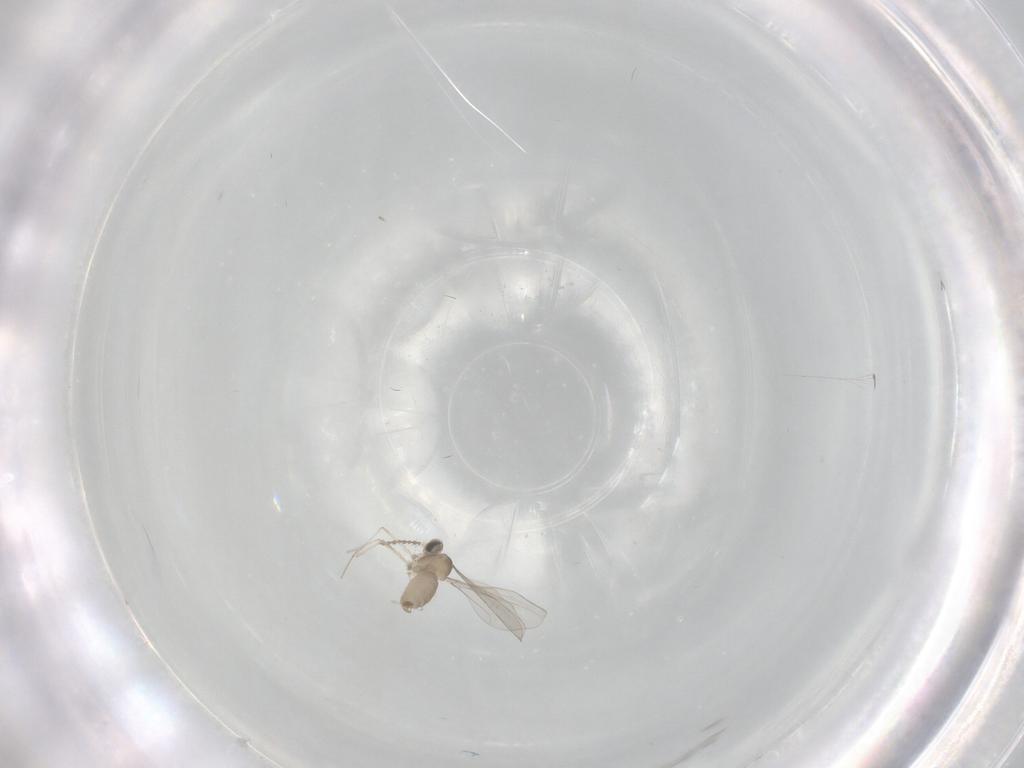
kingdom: Animalia
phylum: Arthropoda
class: Insecta
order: Diptera
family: Cecidomyiidae
